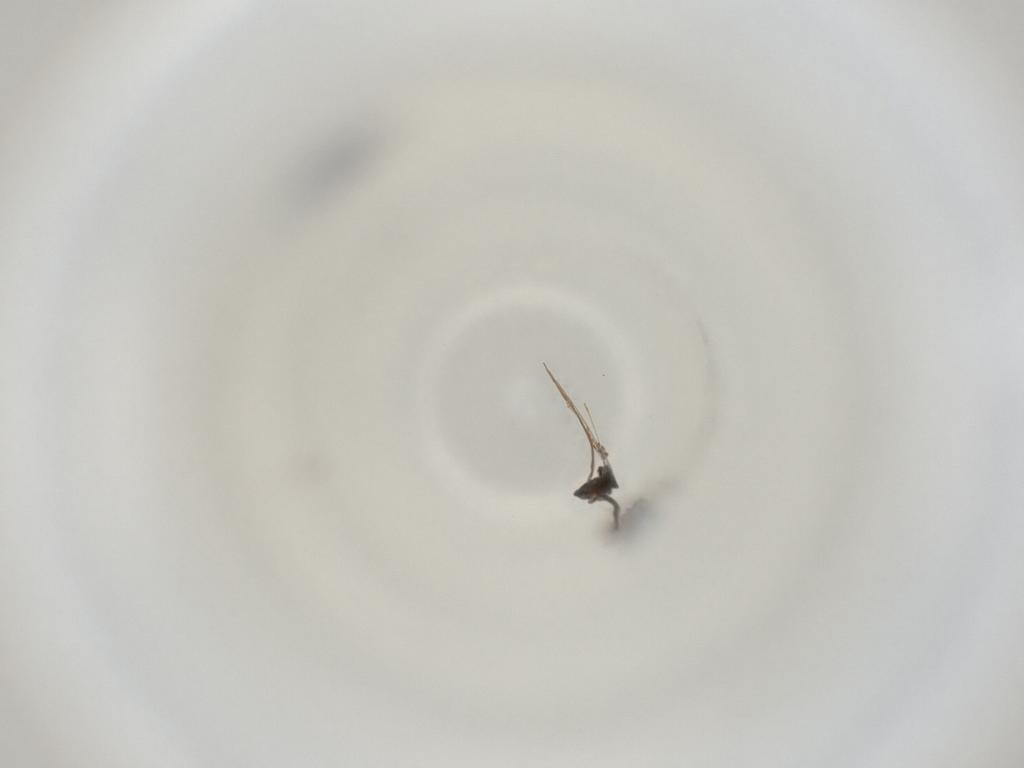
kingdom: Animalia
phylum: Arthropoda
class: Insecta
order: Diptera
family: Cecidomyiidae
